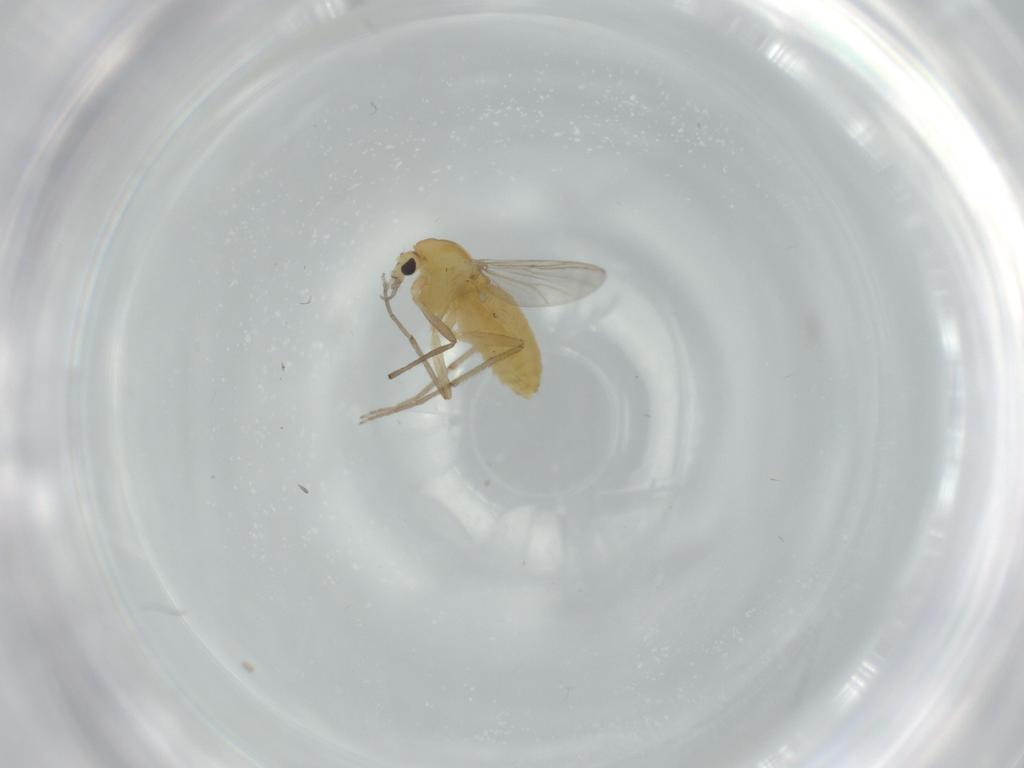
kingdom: Animalia
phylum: Arthropoda
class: Insecta
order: Diptera
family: Chironomidae
